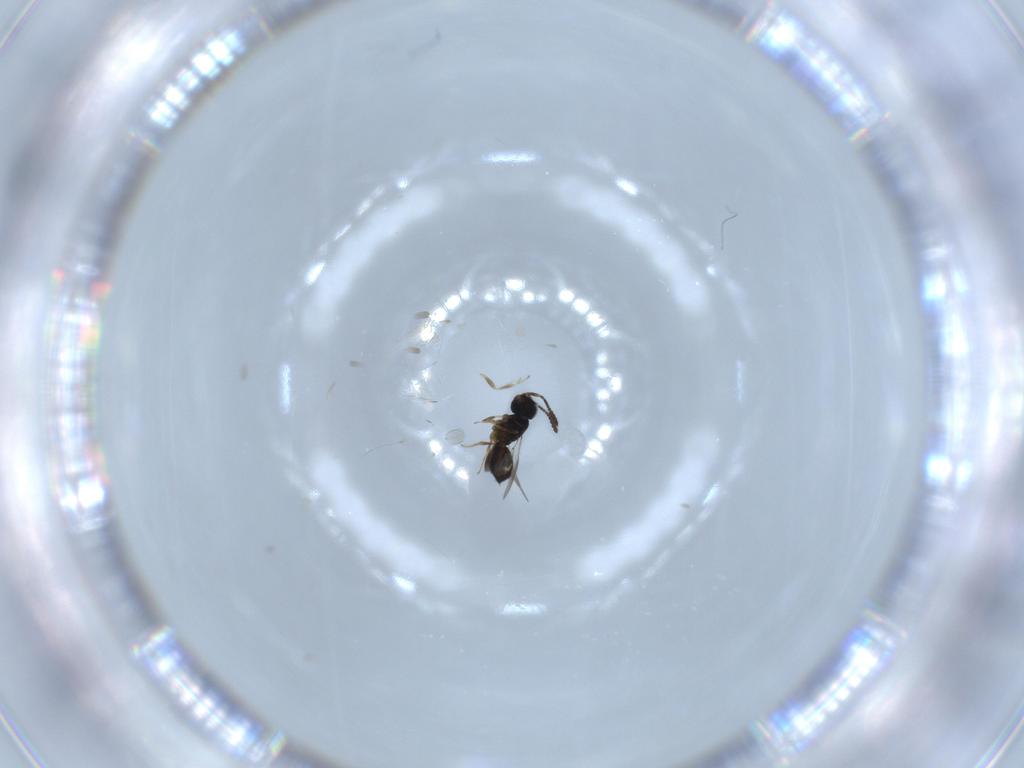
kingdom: Animalia
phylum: Arthropoda
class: Insecta
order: Hymenoptera
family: Scelionidae
